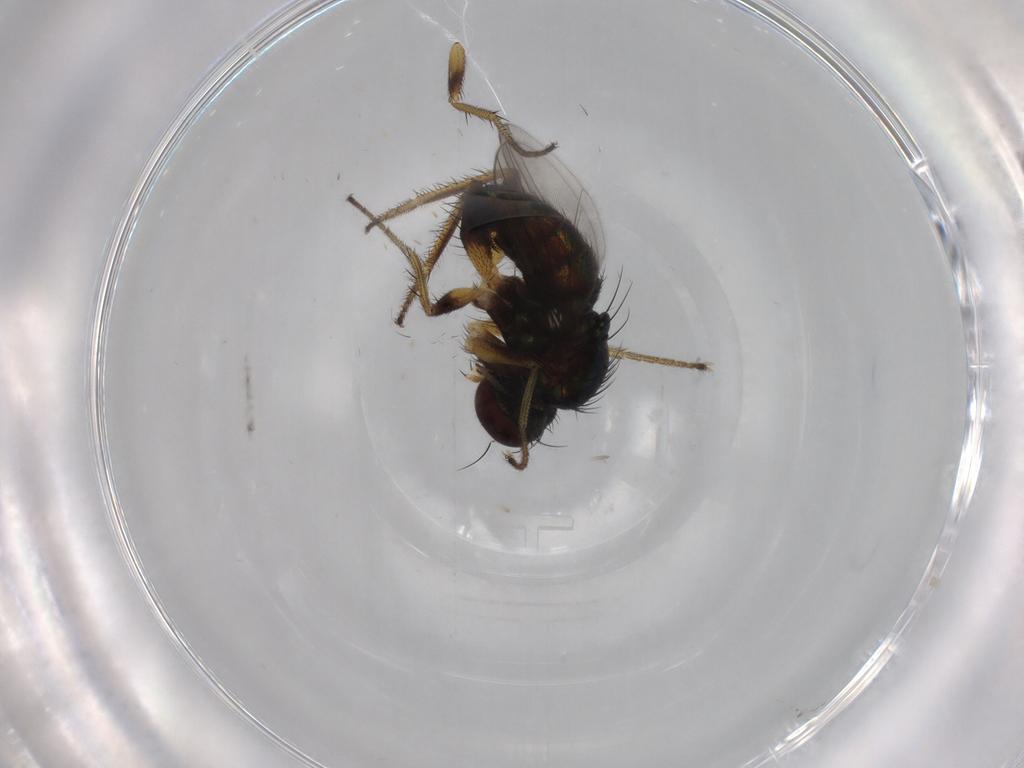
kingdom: Animalia
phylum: Arthropoda
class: Insecta
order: Diptera
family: Dolichopodidae
